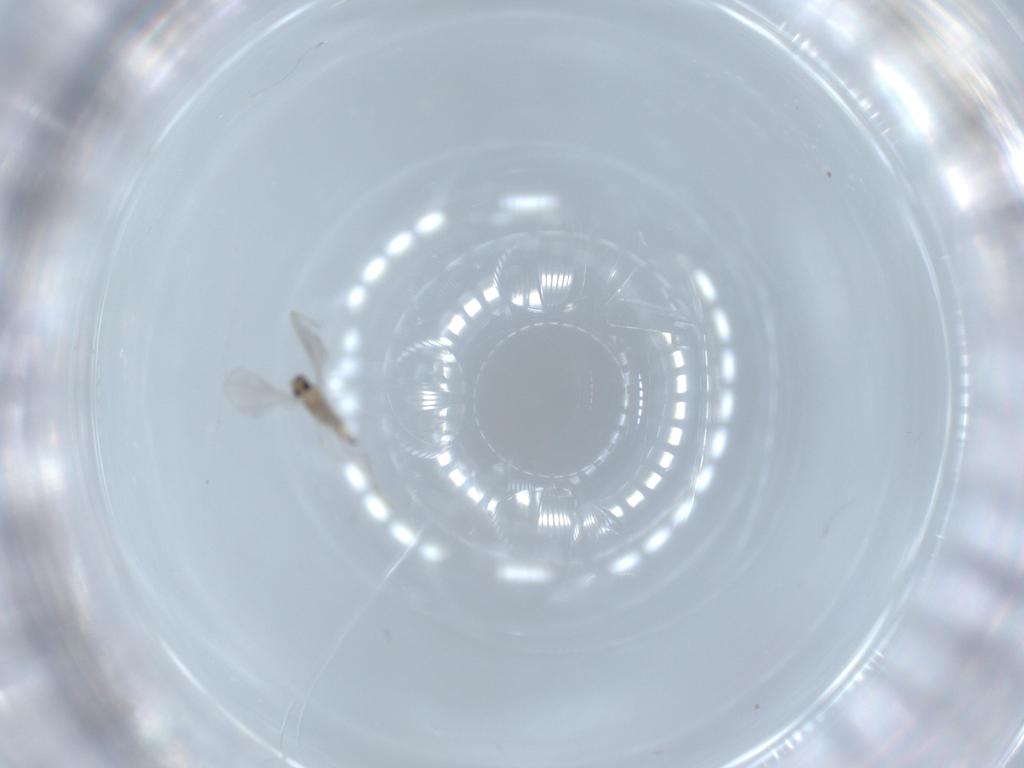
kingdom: Animalia
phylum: Arthropoda
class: Insecta
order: Diptera
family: Cecidomyiidae
